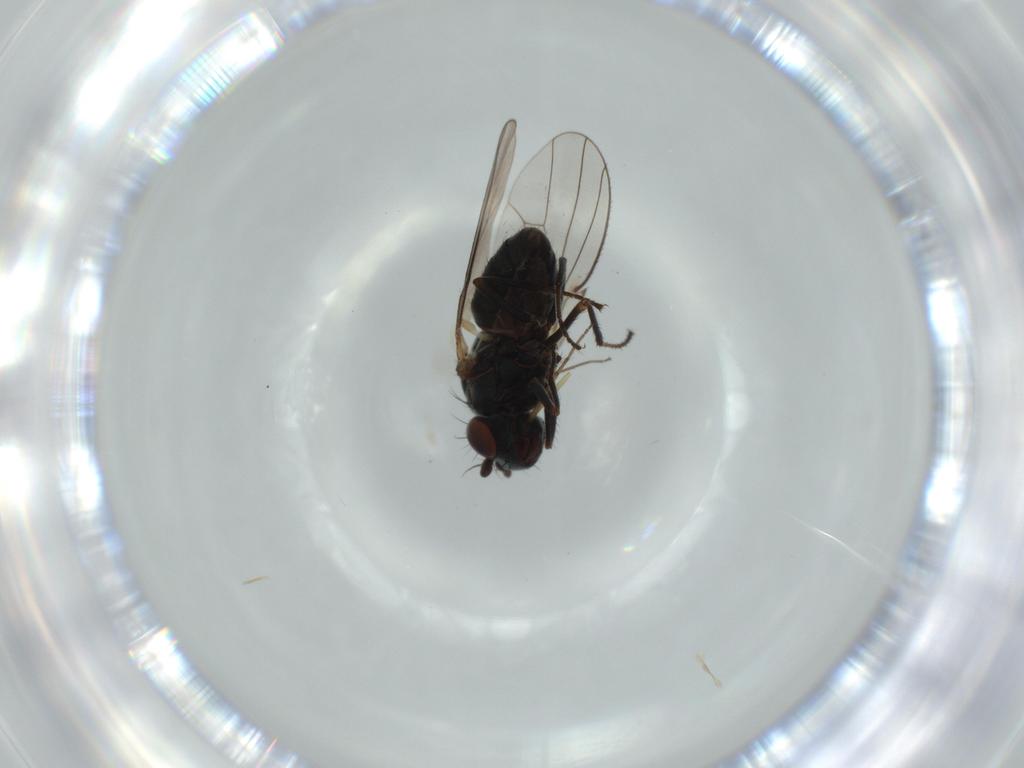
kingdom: Animalia
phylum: Arthropoda
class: Insecta
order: Diptera
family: Ephydridae
